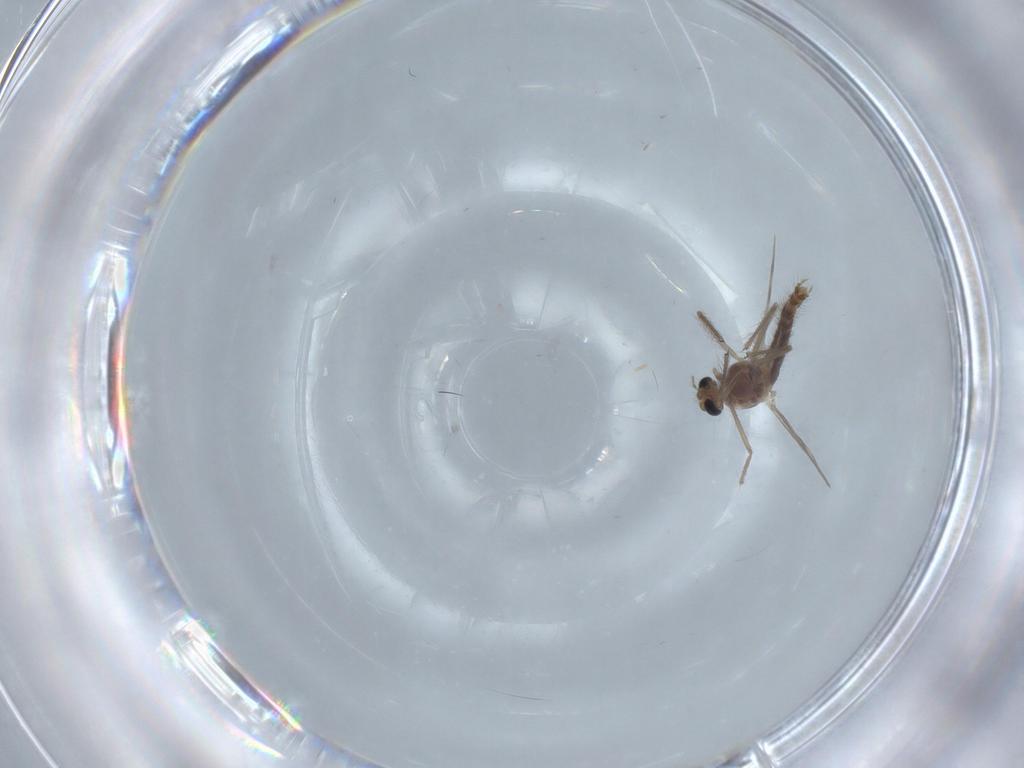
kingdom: Animalia
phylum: Arthropoda
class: Insecta
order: Diptera
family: Chironomidae
